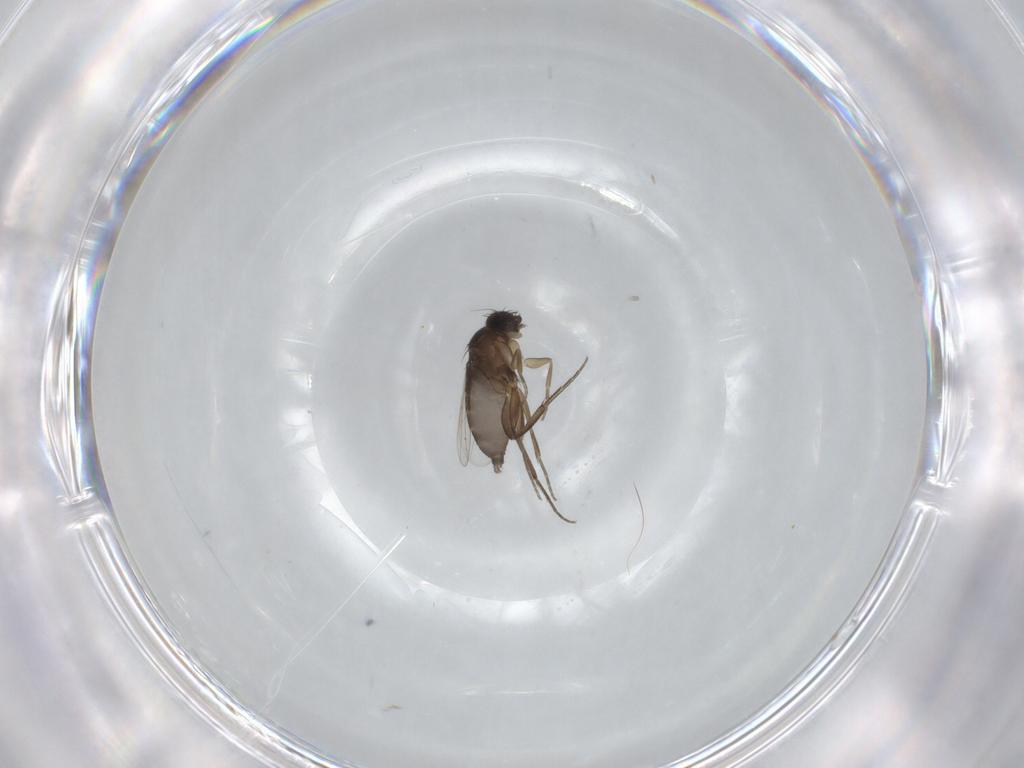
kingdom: Animalia
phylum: Arthropoda
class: Insecta
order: Diptera
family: Phoridae
